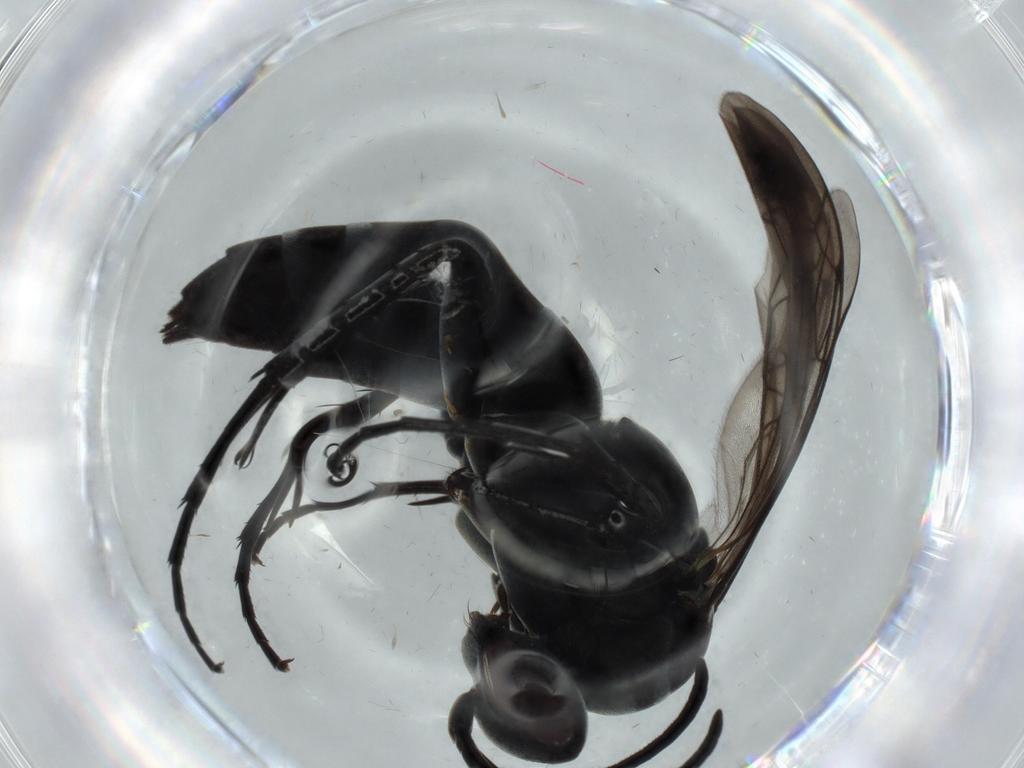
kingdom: Animalia
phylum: Arthropoda
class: Insecta
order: Hymenoptera
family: Pompilidae
